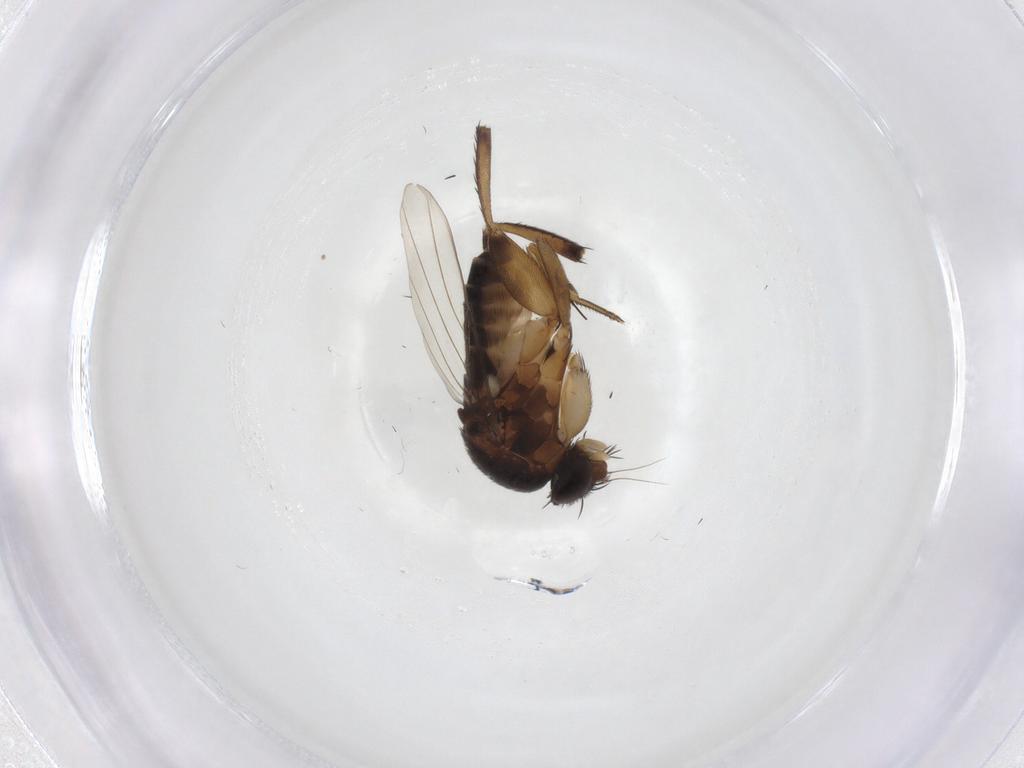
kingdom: Animalia
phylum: Arthropoda
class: Insecta
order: Diptera
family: Phoridae
